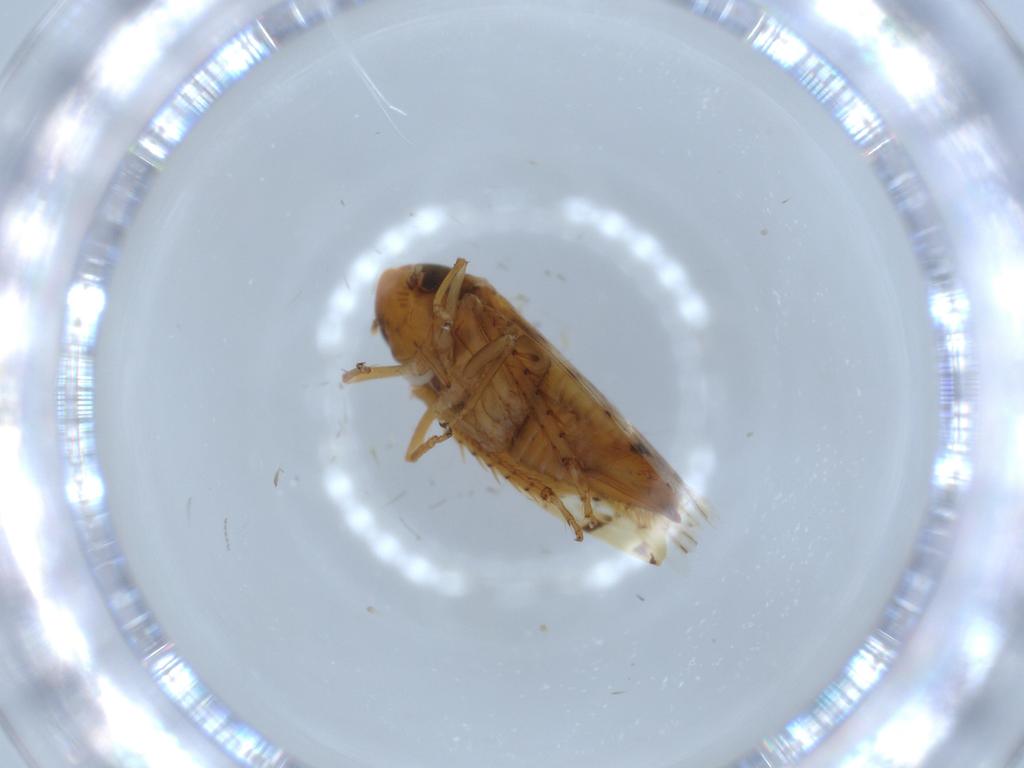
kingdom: Animalia
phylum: Arthropoda
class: Insecta
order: Hemiptera
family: Cicadellidae
